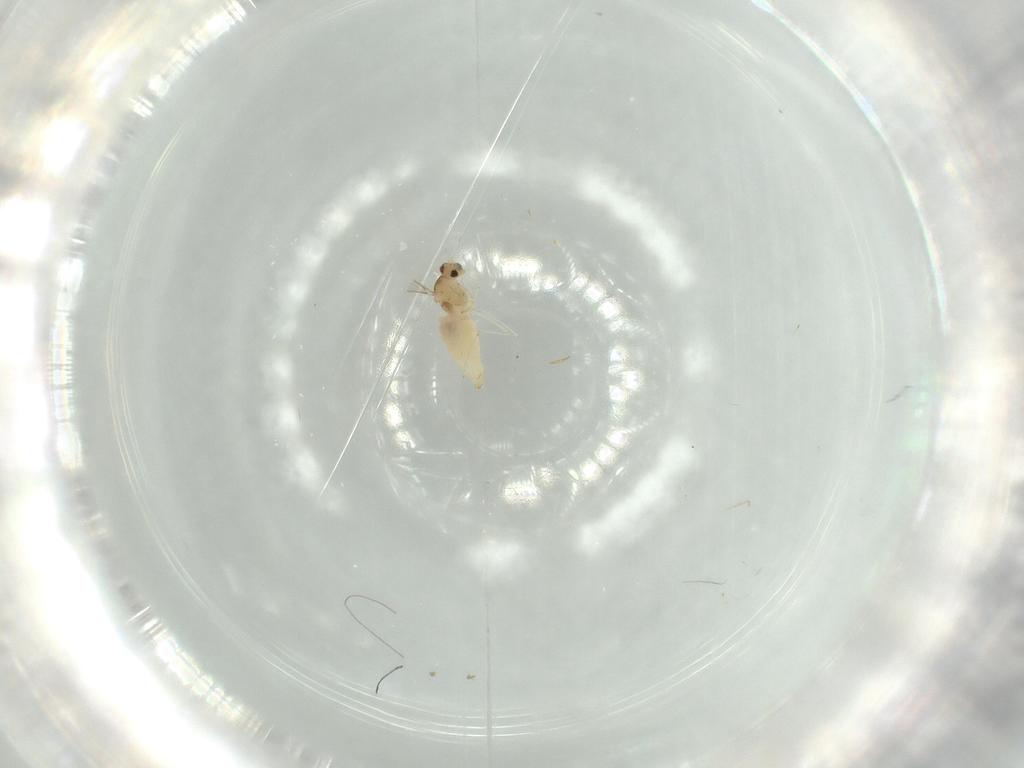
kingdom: Animalia
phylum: Arthropoda
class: Insecta
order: Diptera
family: Cecidomyiidae
